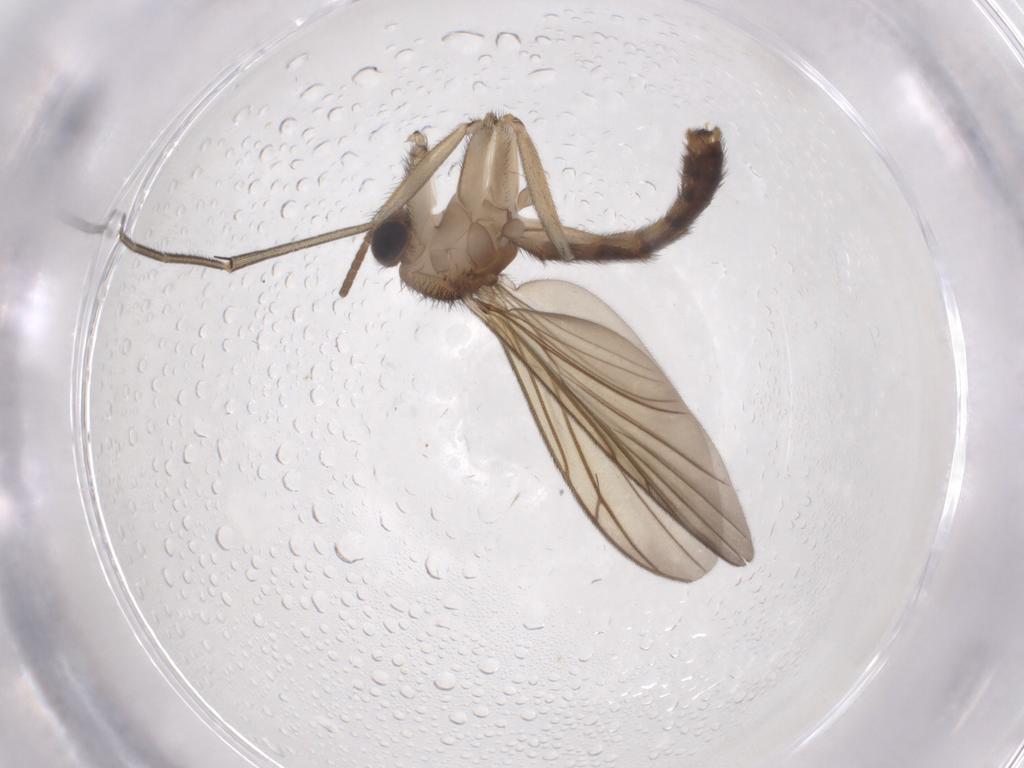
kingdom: Animalia
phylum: Arthropoda
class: Insecta
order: Diptera
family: Keroplatidae
